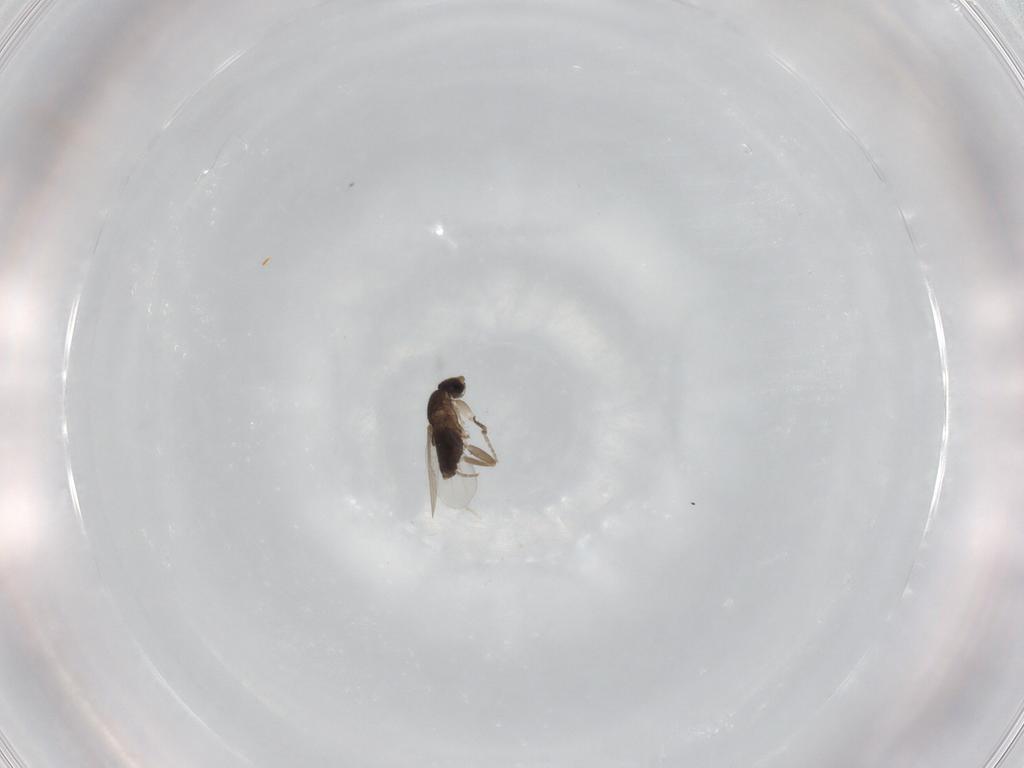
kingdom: Animalia
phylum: Arthropoda
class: Insecta
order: Diptera
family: Phoridae
